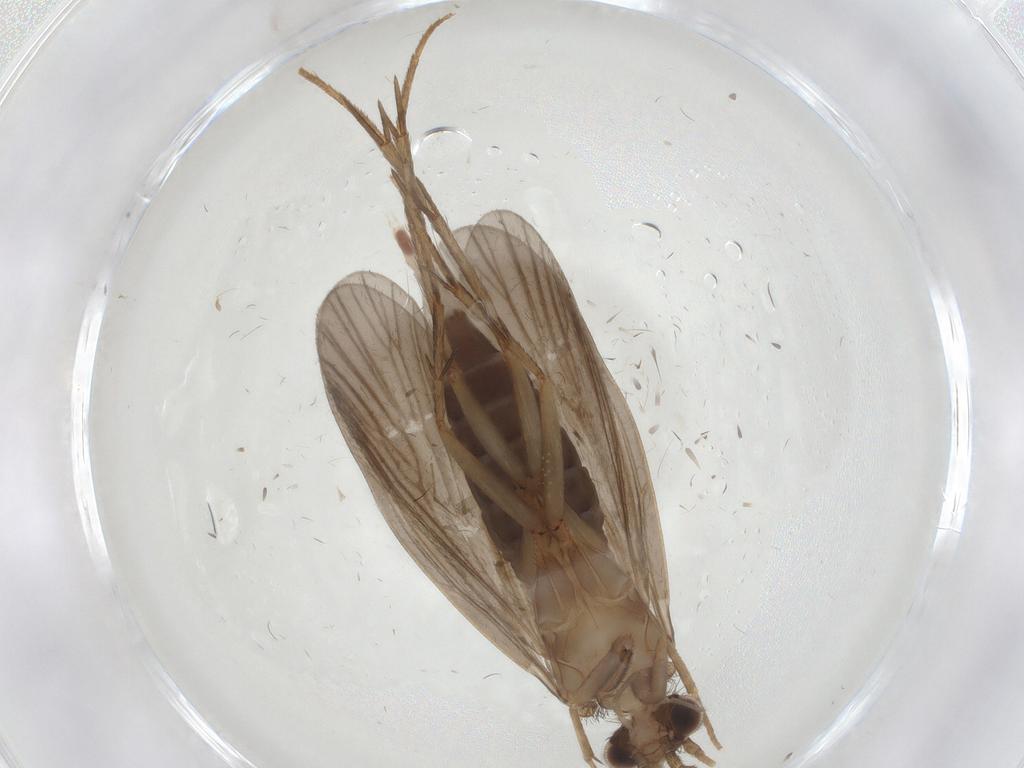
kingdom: Animalia
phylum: Arthropoda
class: Insecta
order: Trichoptera
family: Philopotamidae
